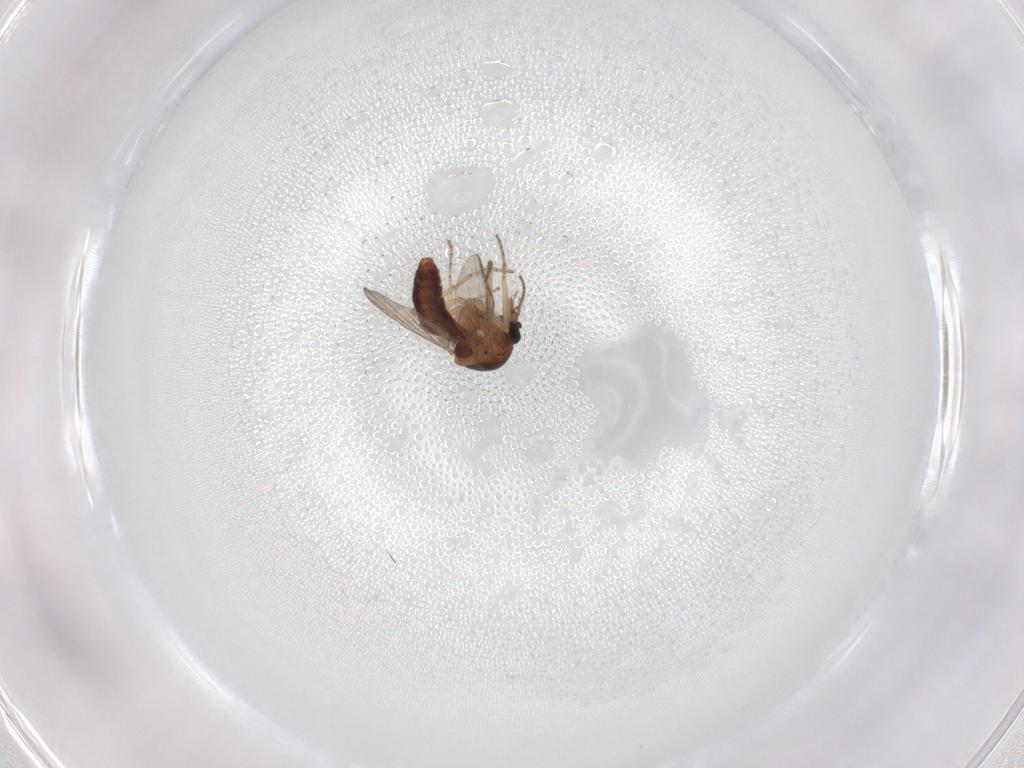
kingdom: Animalia
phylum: Arthropoda
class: Insecta
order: Diptera
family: Ceratopogonidae
